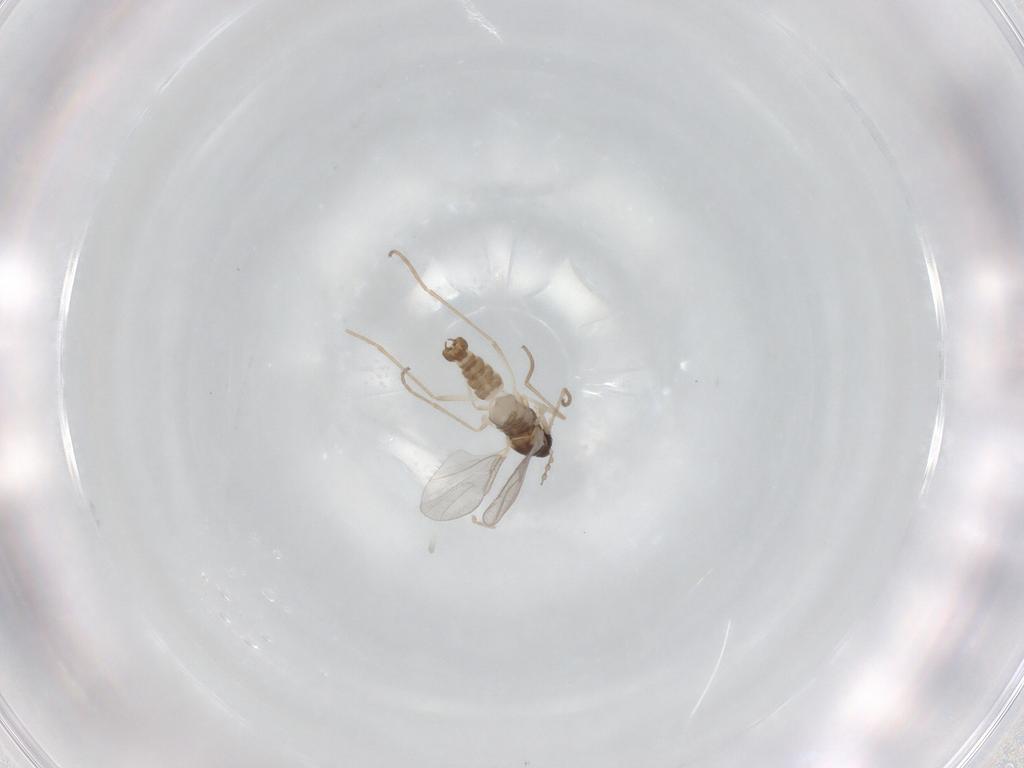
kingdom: Animalia
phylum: Arthropoda
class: Insecta
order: Diptera
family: Cecidomyiidae
